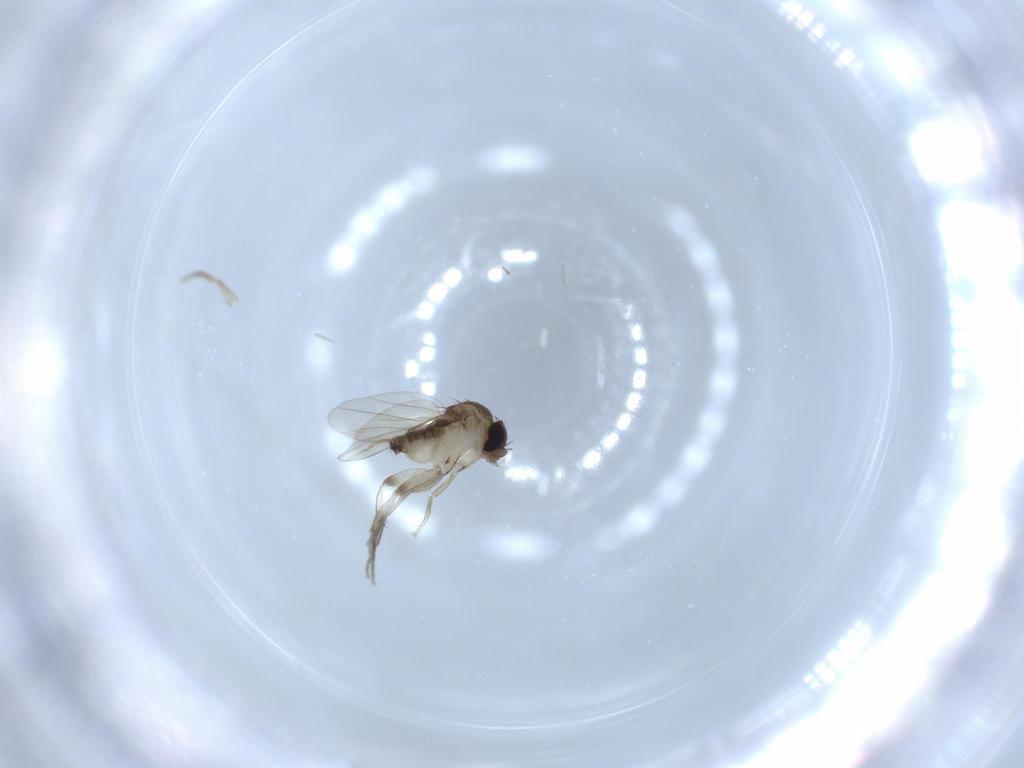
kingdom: Animalia
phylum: Arthropoda
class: Insecta
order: Diptera
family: Phoridae
